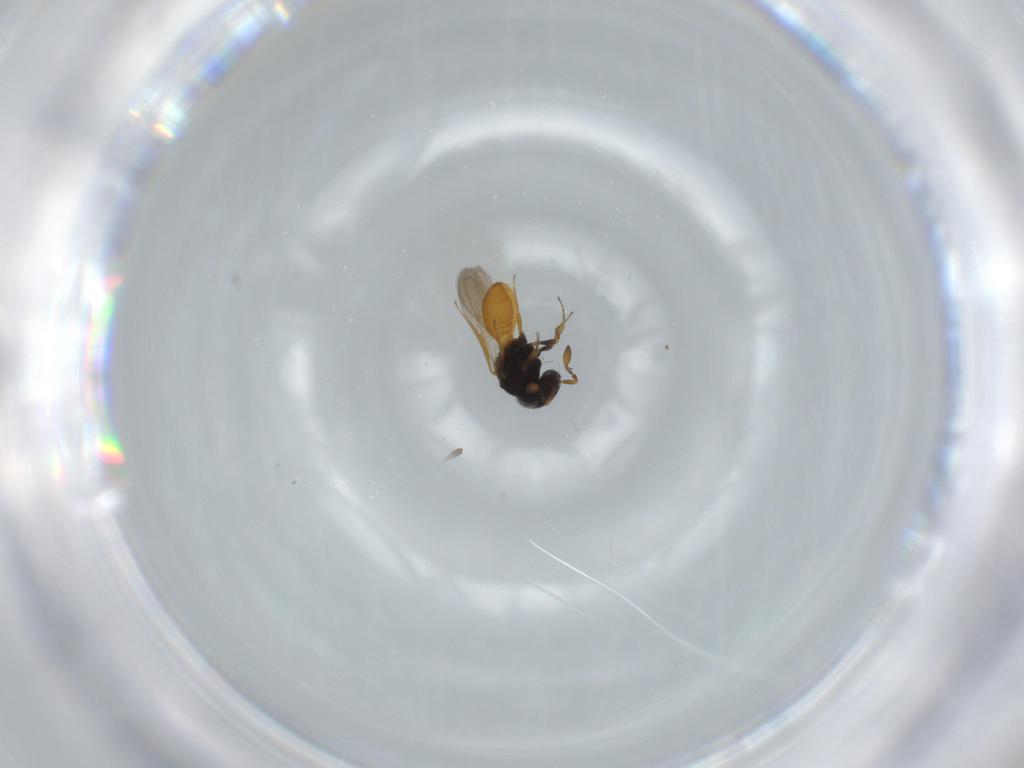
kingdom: Animalia
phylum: Arthropoda
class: Insecta
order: Hymenoptera
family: Scelionidae
